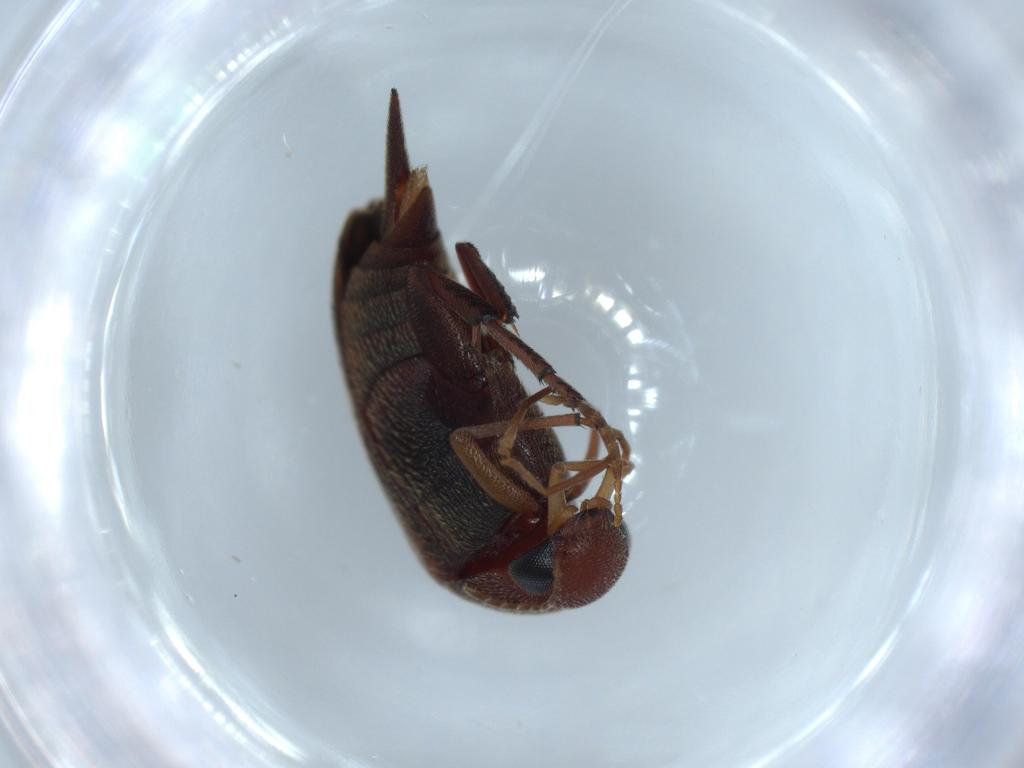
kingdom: Animalia
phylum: Arthropoda
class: Insecta
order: Coleoptera
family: Mordellidae
